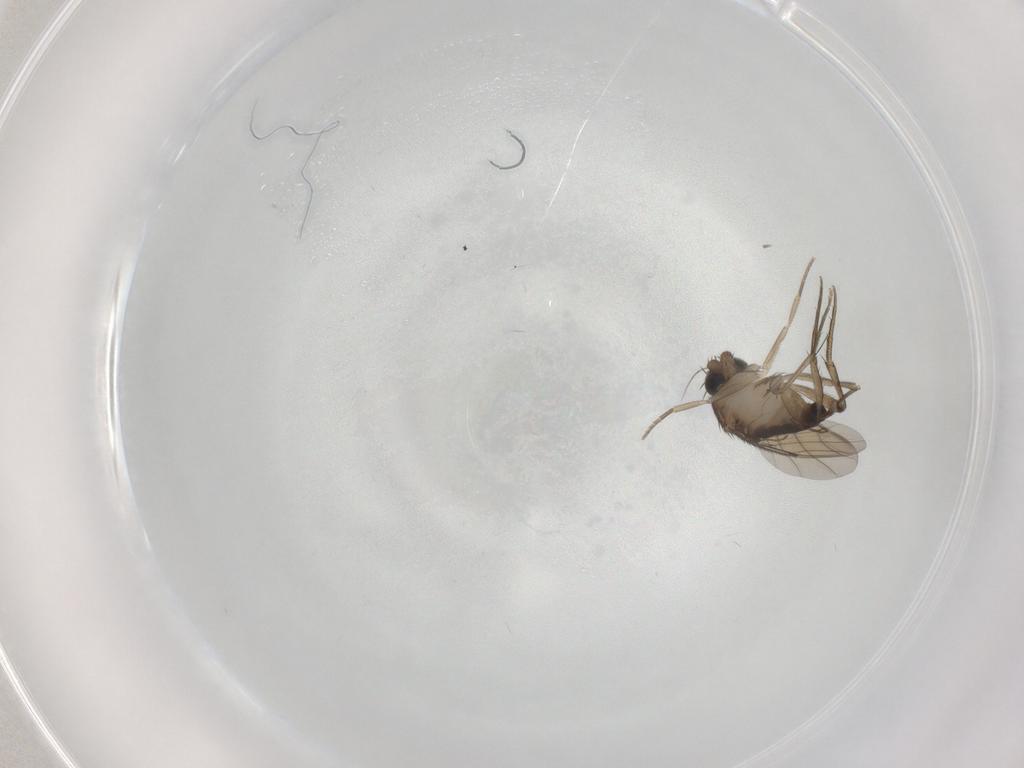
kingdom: Animalia
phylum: Arthropoda
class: Insecta
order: Diptera
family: Phoridae
